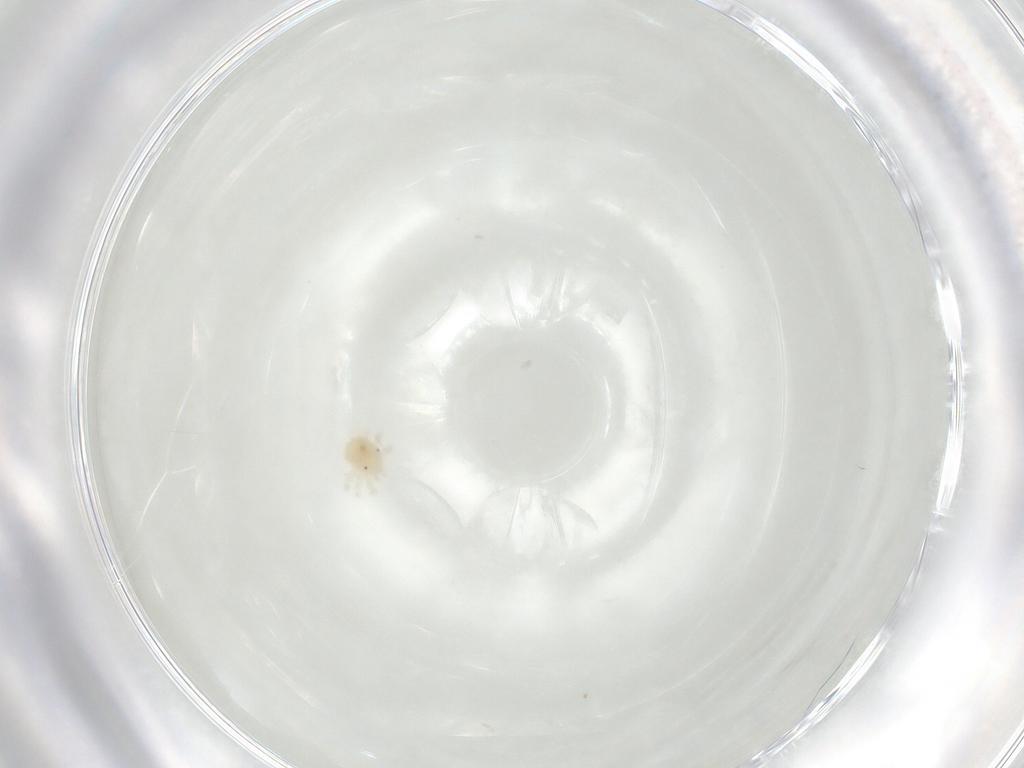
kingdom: Animalia
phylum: Arthropoda
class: Arachnida
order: Trombidiformes
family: Anystidae
